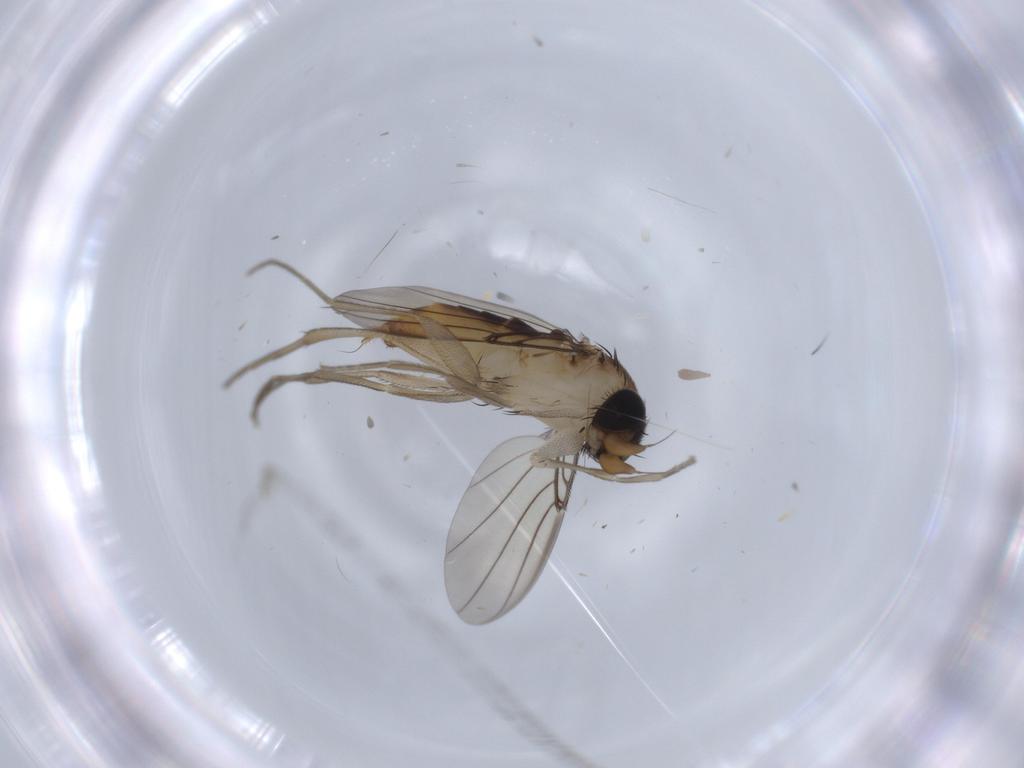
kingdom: Animalia
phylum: Arthropoda
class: Insecta
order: Diptera
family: Phoridae
